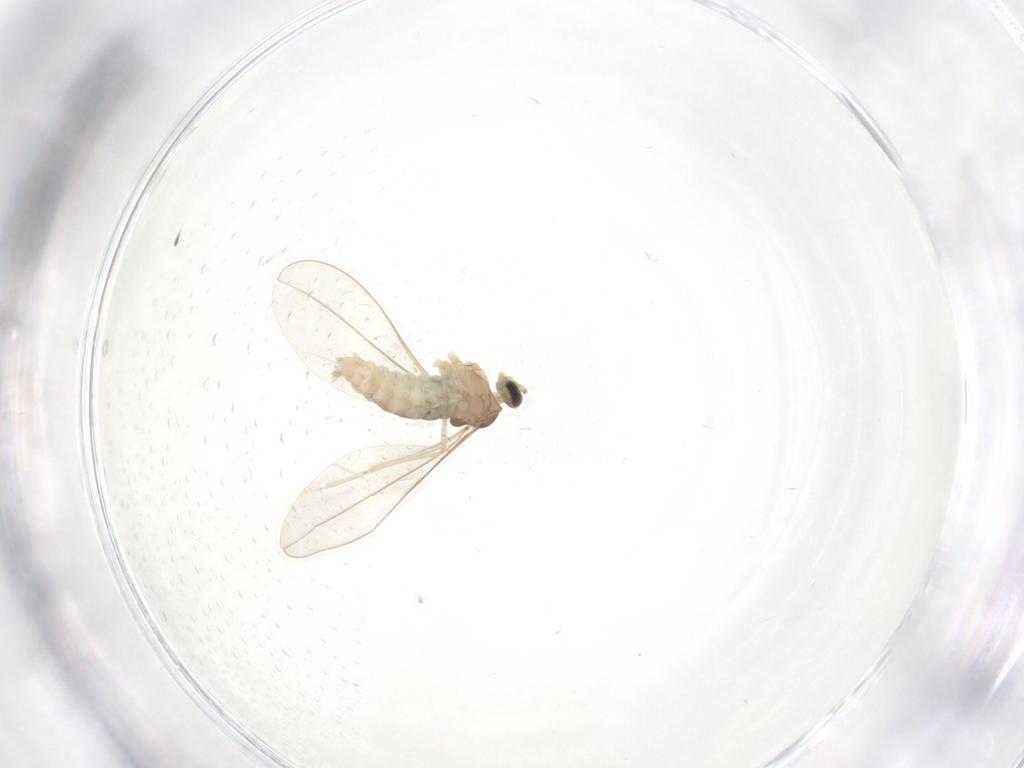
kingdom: Animalia
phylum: Arthropoda
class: Insecta
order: Diptera
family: Cecidomyiidae
